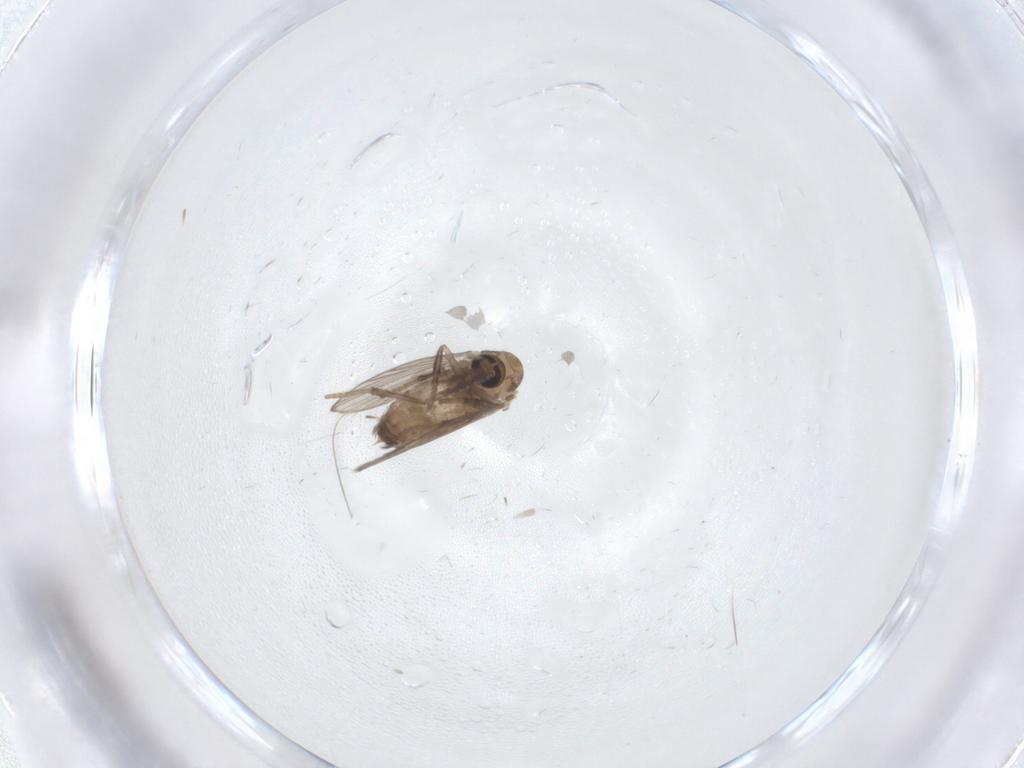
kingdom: Animalia
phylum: Arthropoda
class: Insecta
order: Diptera
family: Psychodidae
